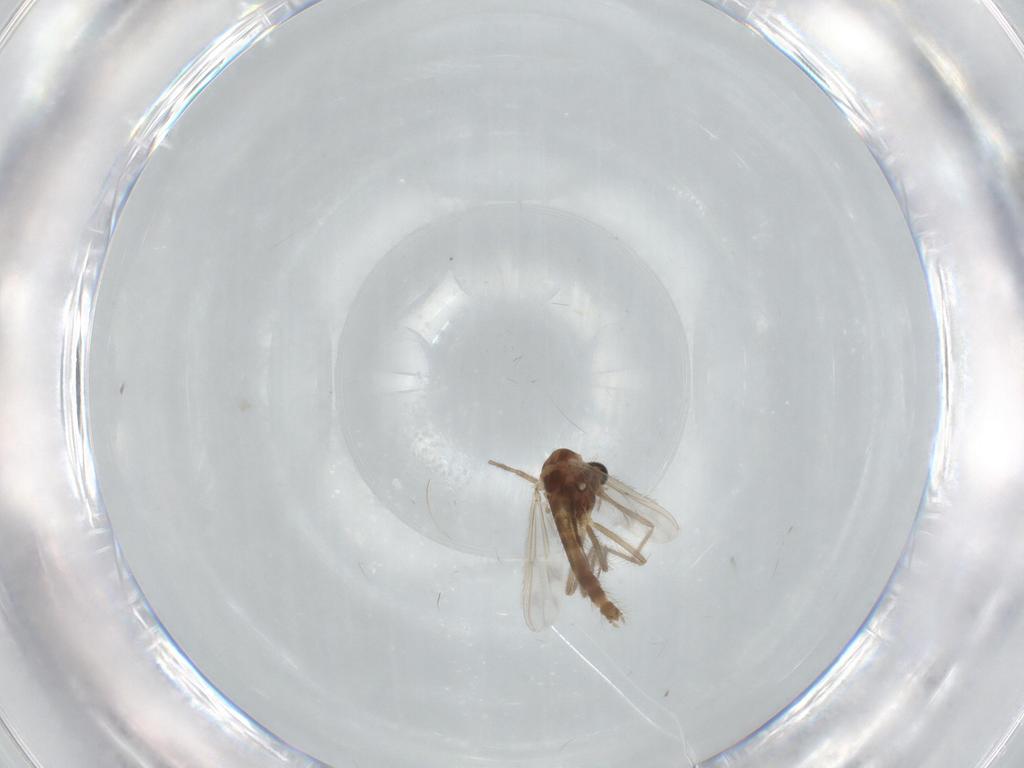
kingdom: Animalia
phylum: Arthropoda
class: Insecta
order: Diptera
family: Chironomidae
